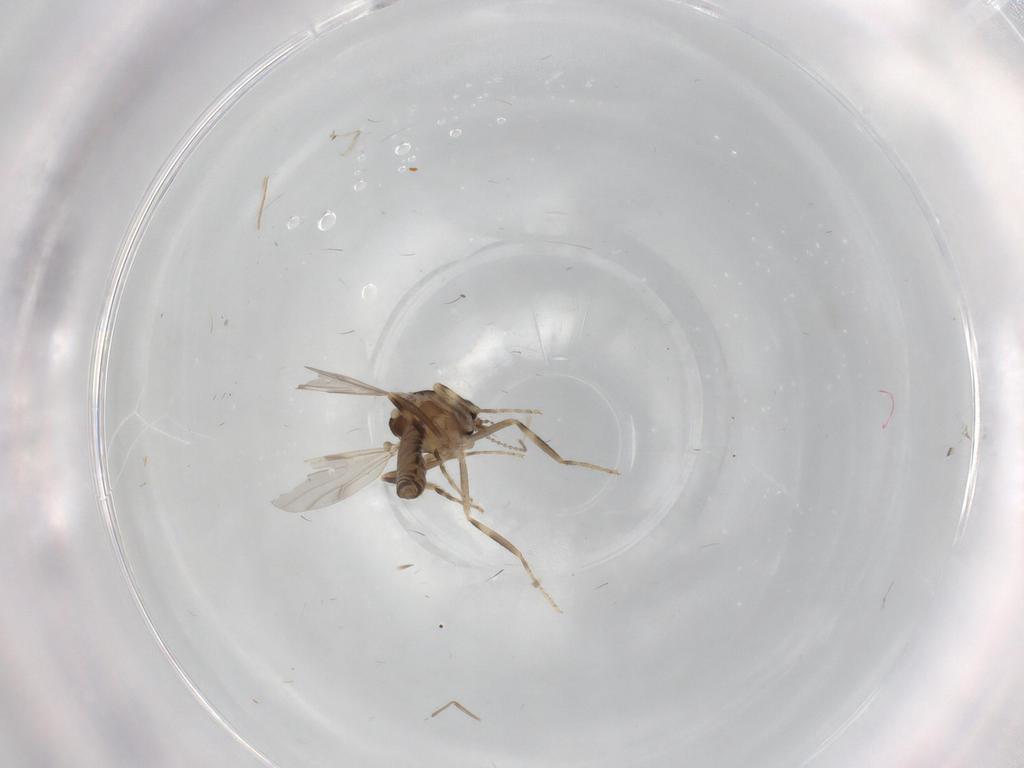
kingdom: Animalia
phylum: Arthropoda
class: Insecta
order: Diptera
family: Ceratopogonidae
